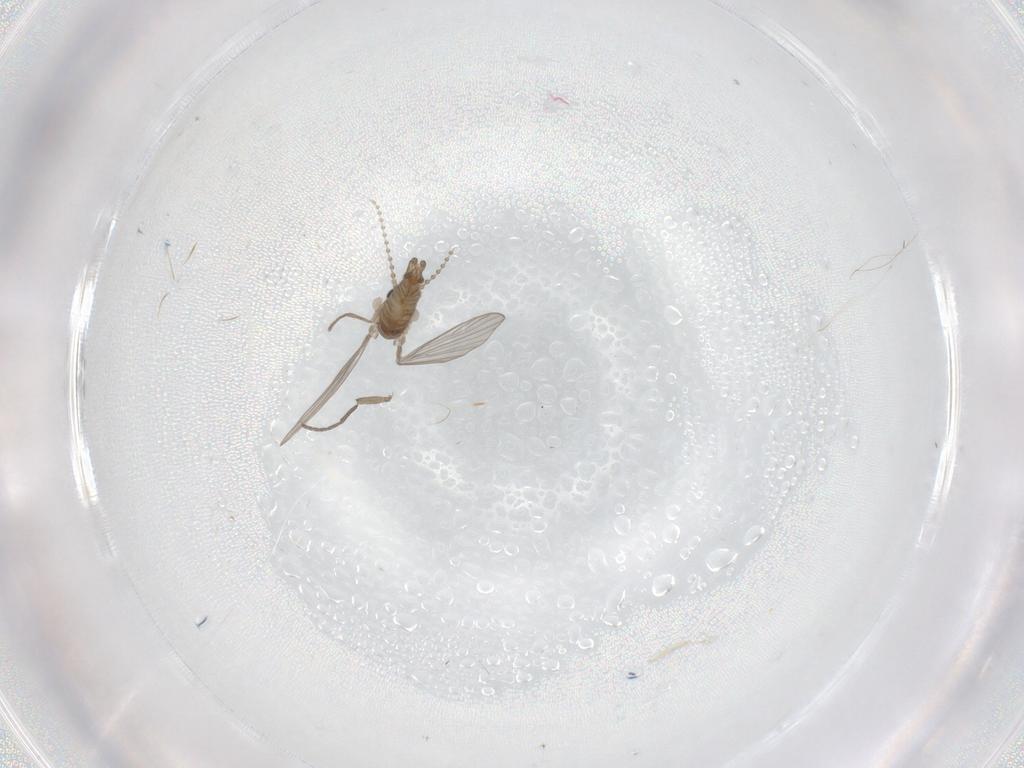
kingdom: Animalia
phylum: Arthropoda
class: Insecta
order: Diptera
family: Psychodidae
